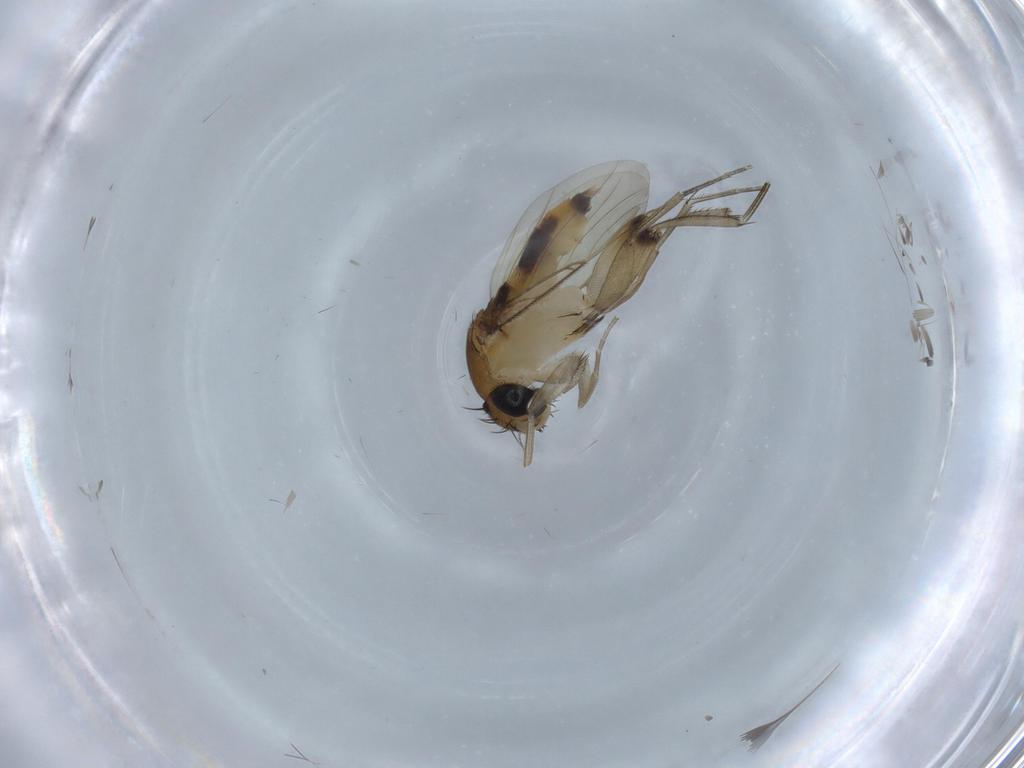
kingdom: Animalia
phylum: Arthropoda
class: Insecta
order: Diptera
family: Phoridae
